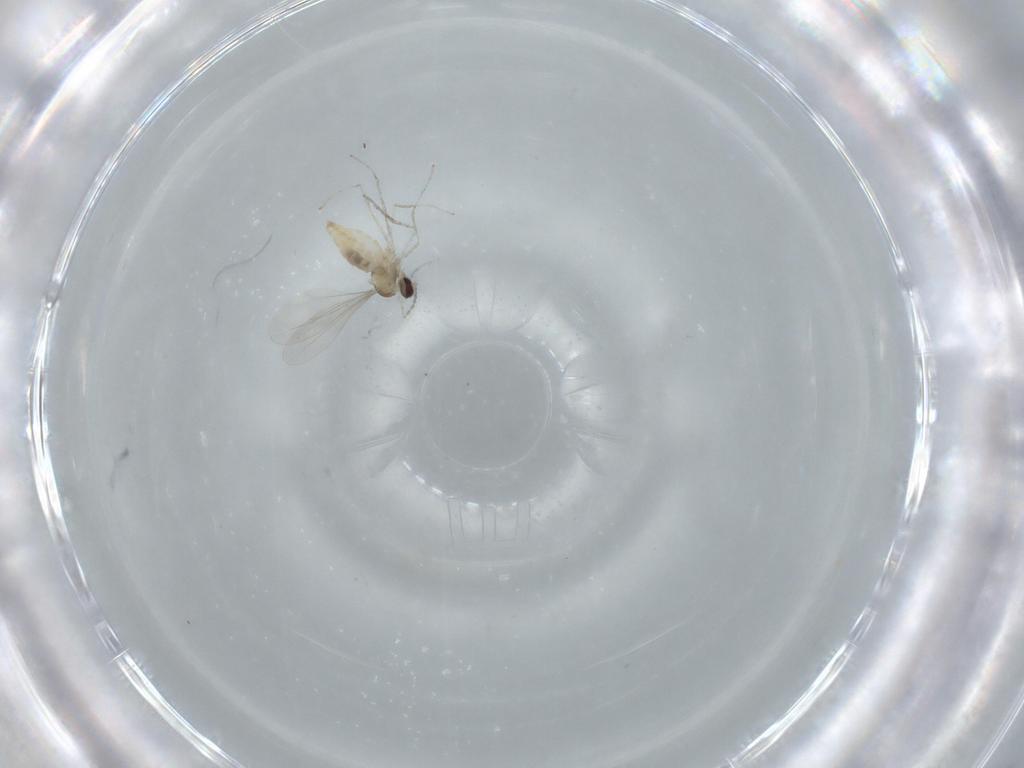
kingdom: Animalia
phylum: Arthropoda
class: Insecta
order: Diptera
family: Cecidomyiidae
